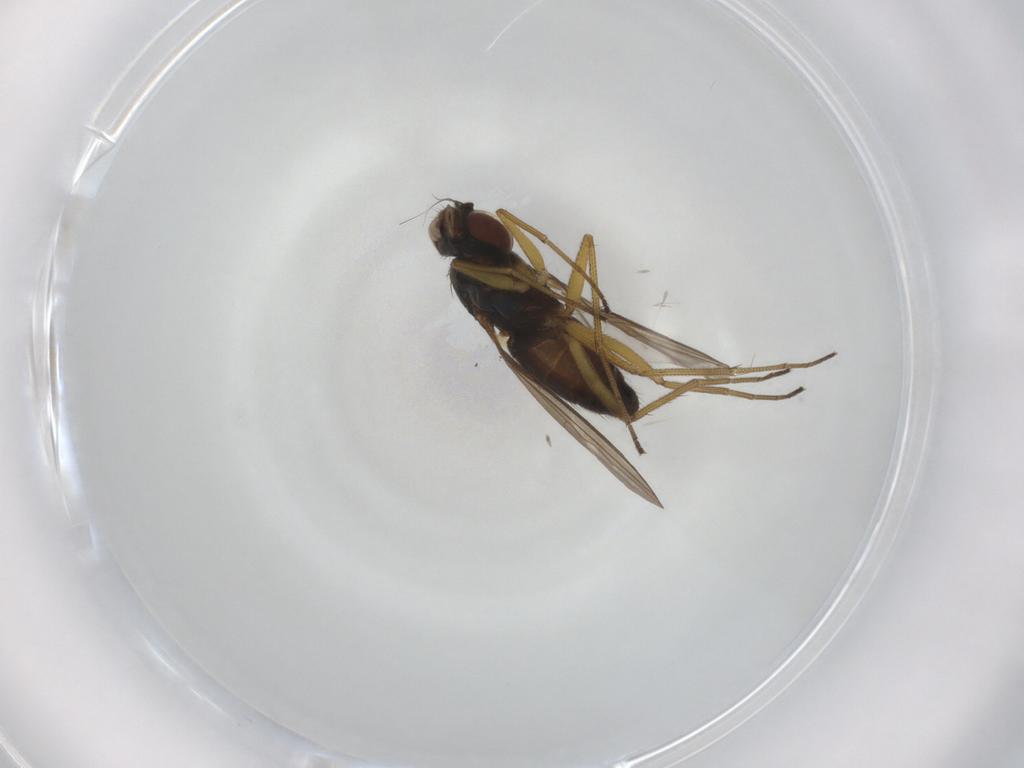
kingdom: Animalia
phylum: Arthropoda
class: Insecta
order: Diptera
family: Dolichopodidae
